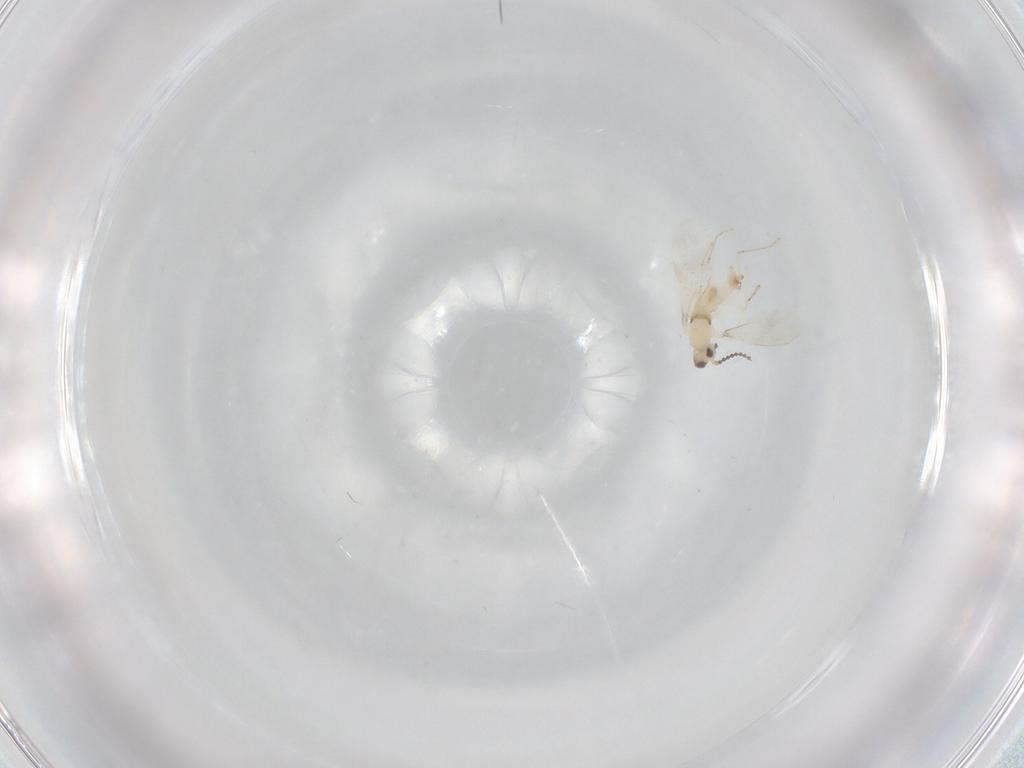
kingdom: Animalia
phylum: Arthropoda
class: Insecta
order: Diptera
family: Cecidomyiidae
